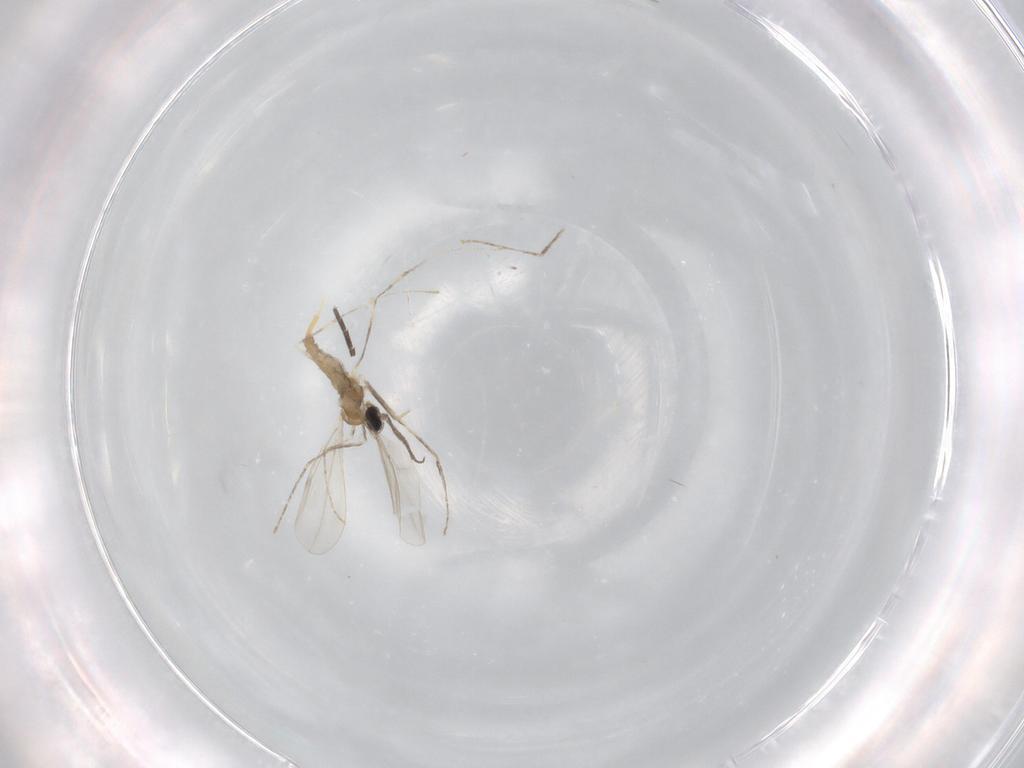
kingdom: Animalia
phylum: Arthropoda
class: Insecta
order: Diptera
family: Cecidomyiidae
